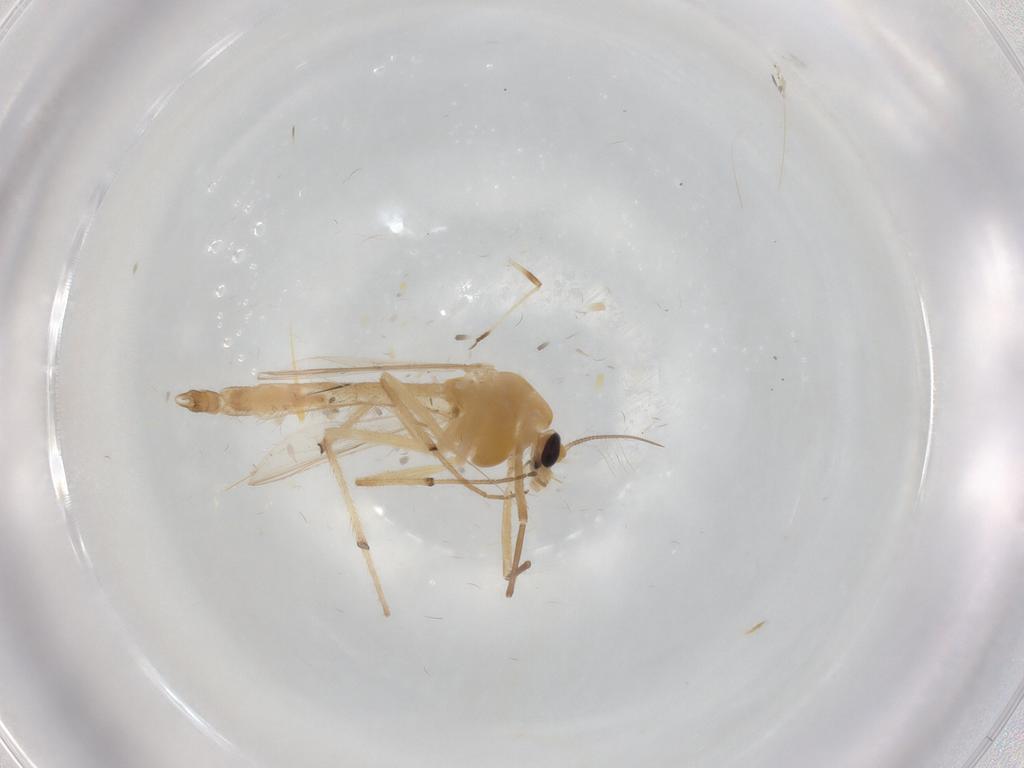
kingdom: Animalia
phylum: Arthropoda
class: Insecta
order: Diptera
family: Psychodidae
